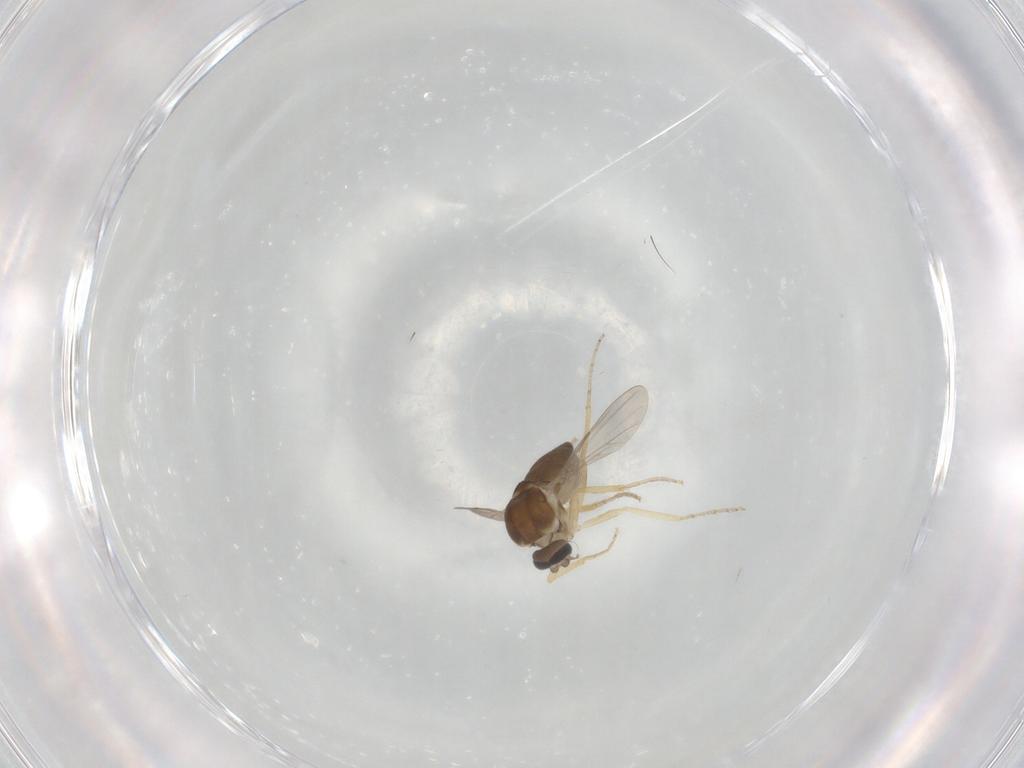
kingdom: Animalia
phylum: Arthropoda
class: Insecta
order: Diptera
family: Ceratopogonidae
